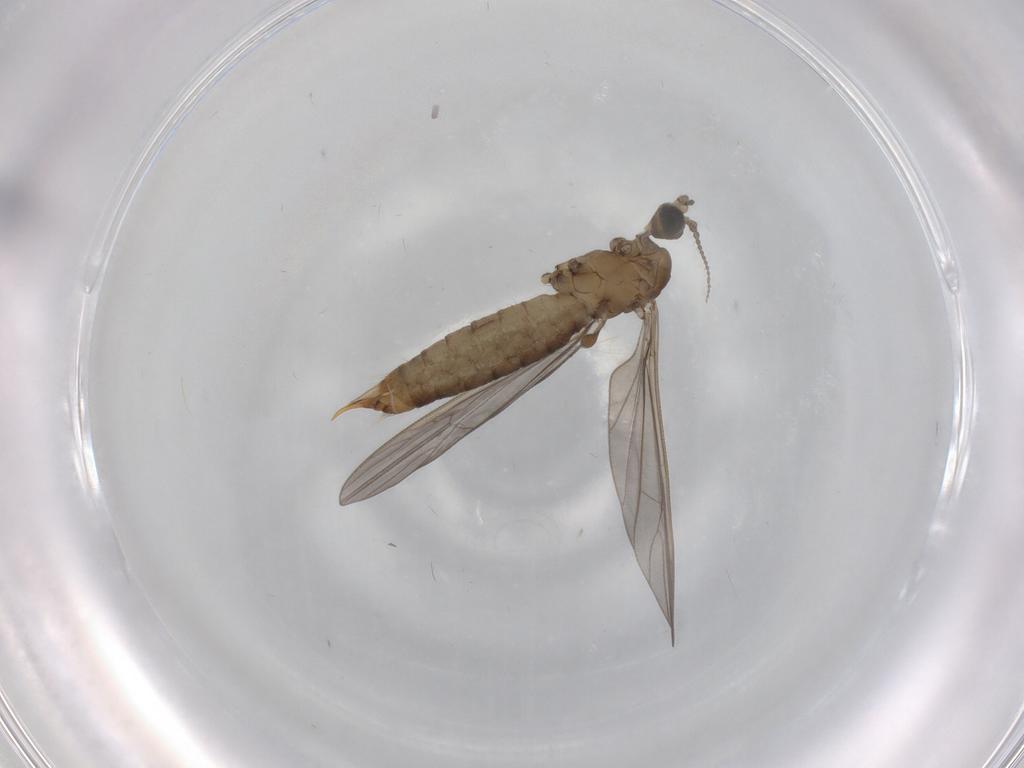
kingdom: Animalia
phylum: Arthropoda
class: Insecta
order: Diptera
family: Limoniidae
